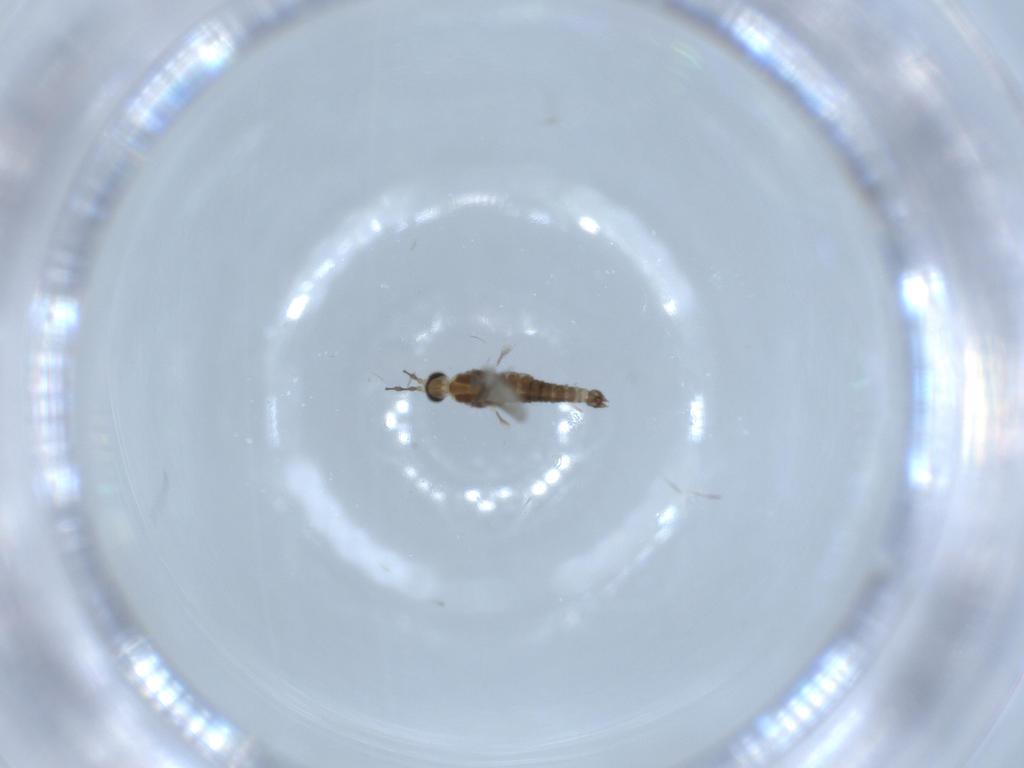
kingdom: Animalia
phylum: Arthropoda
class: Insecta
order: Diptera
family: Cecidomyiidae
